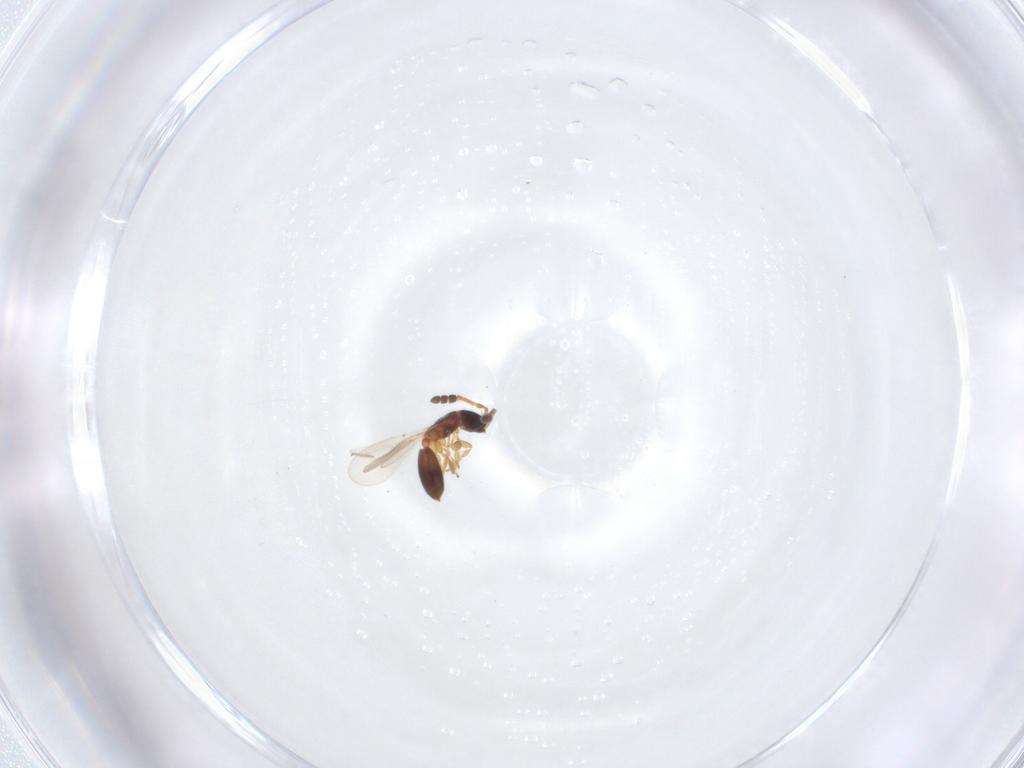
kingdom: Animalia
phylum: Arthropoda
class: Insecta
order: Hymenoptera
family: Diapriidae
